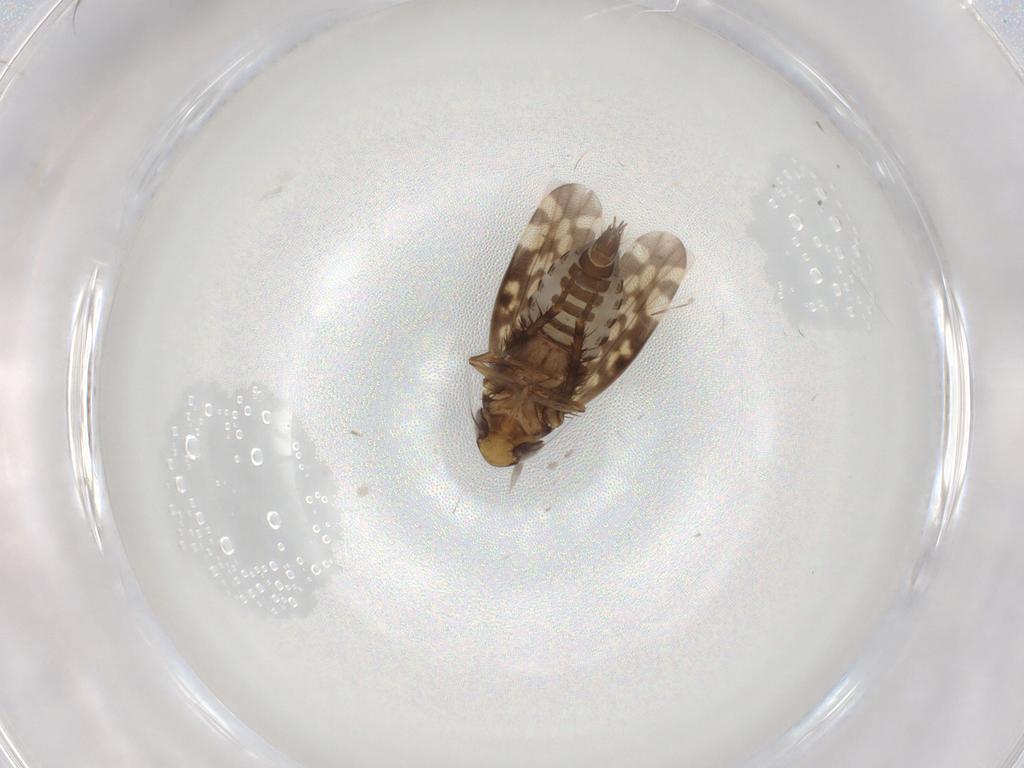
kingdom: Animalia
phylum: Arthropoda
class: Insecta
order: Hemiptera
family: Cicadellidae
